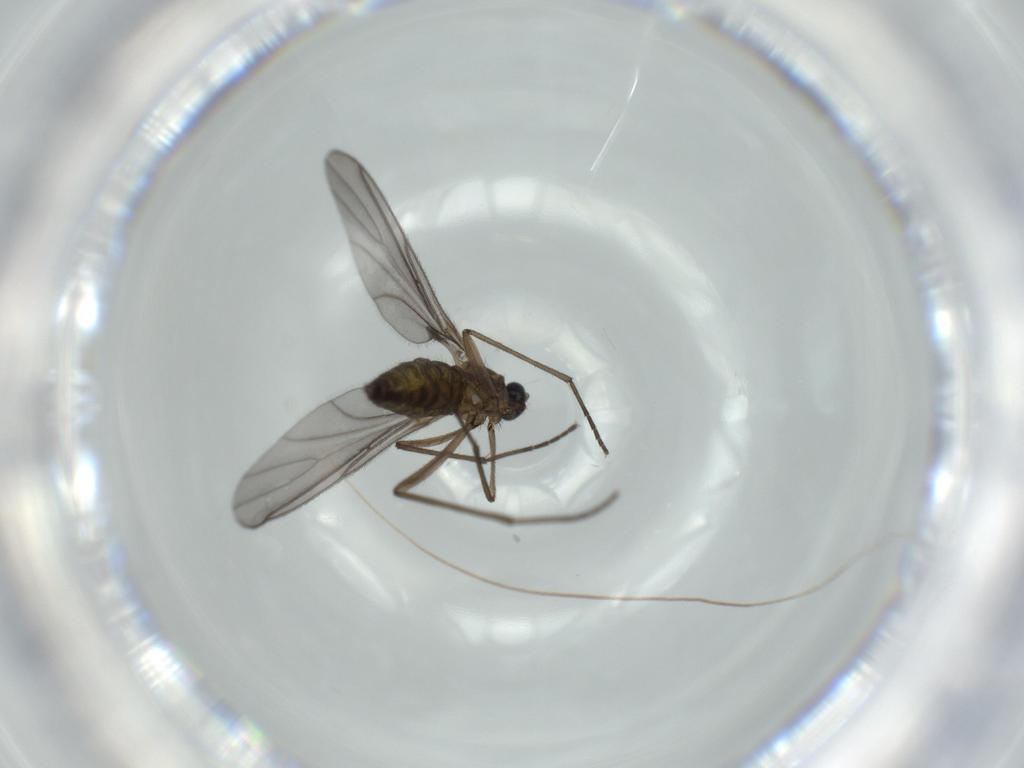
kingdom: Animalia
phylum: Arthropoda
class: Insecta
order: Diptera
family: Sciaridae
